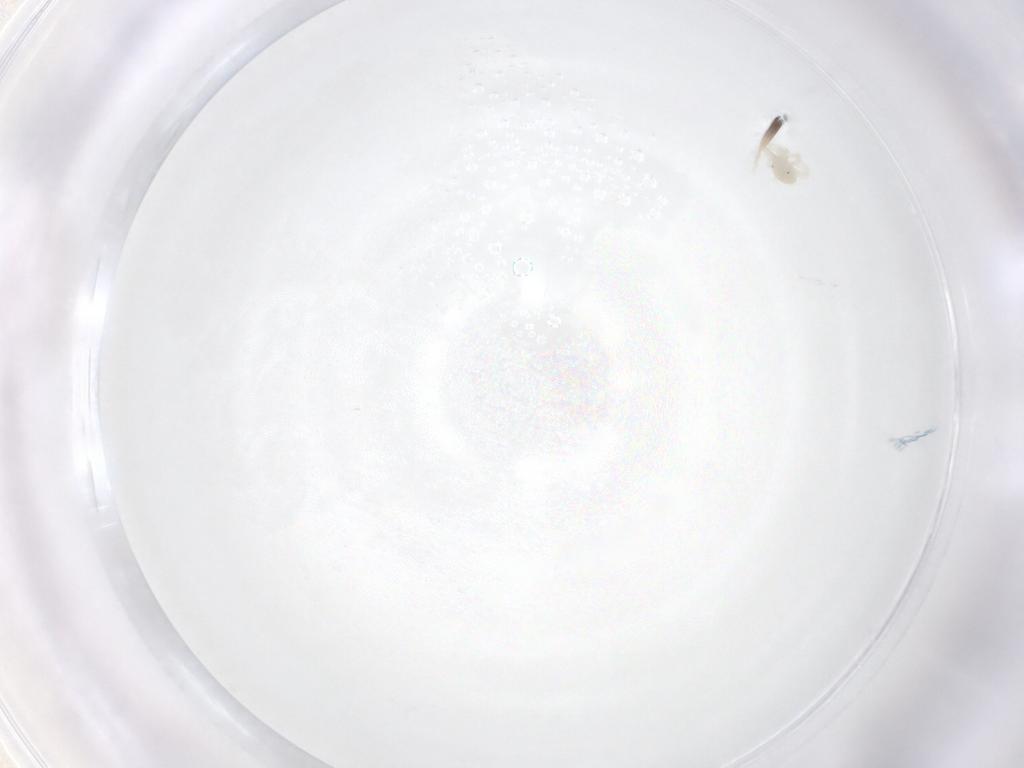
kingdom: Animalia
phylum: Arthropoda
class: Arachnida
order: Trombidiformes
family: Anystidae
